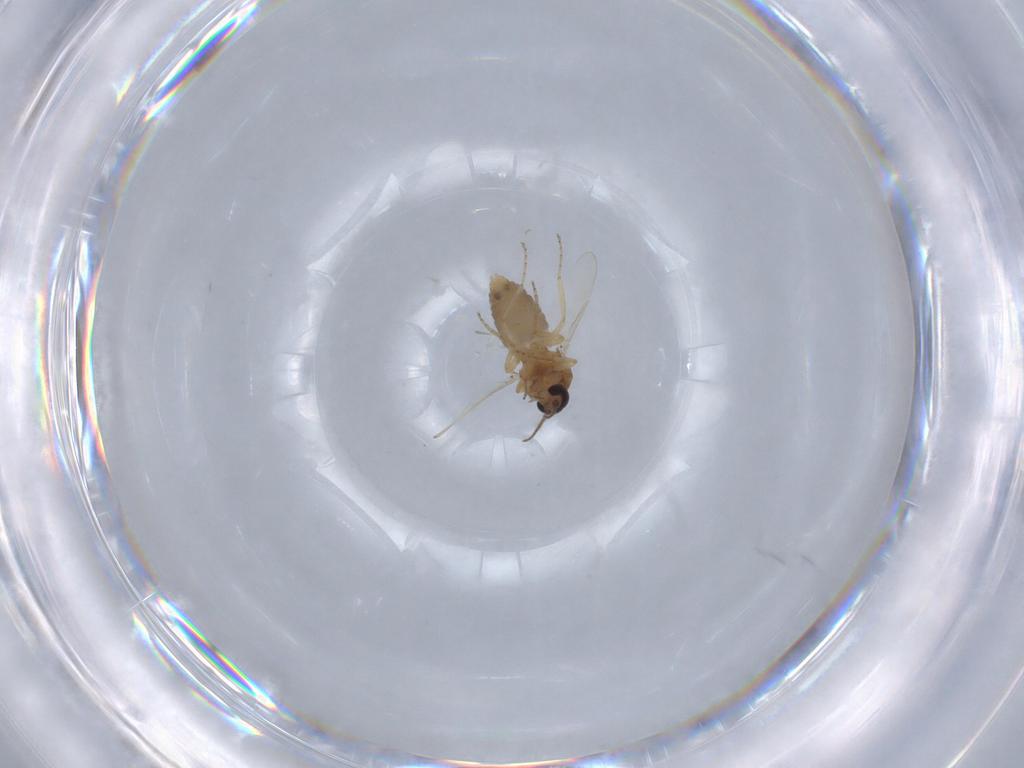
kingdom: Animalia
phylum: Arthropoda
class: Insecta
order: Diptera
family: Ceratopogonidae
